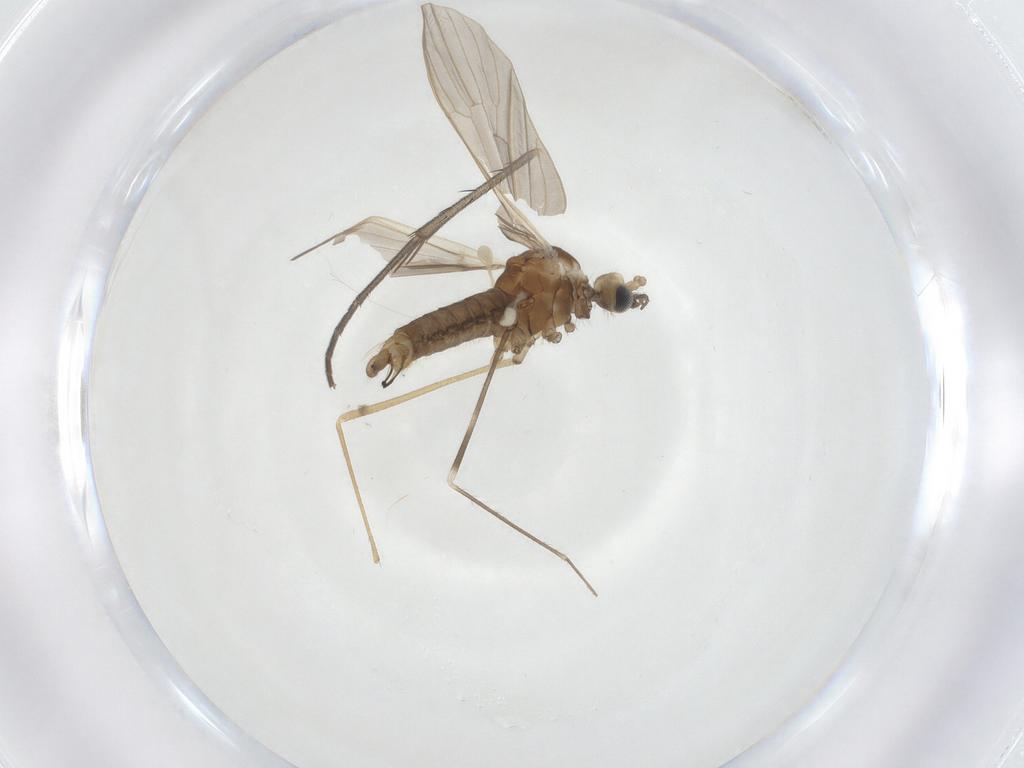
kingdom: Animalia
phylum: Arthropoda
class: Insecta
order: Diptera
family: Limoniidae
